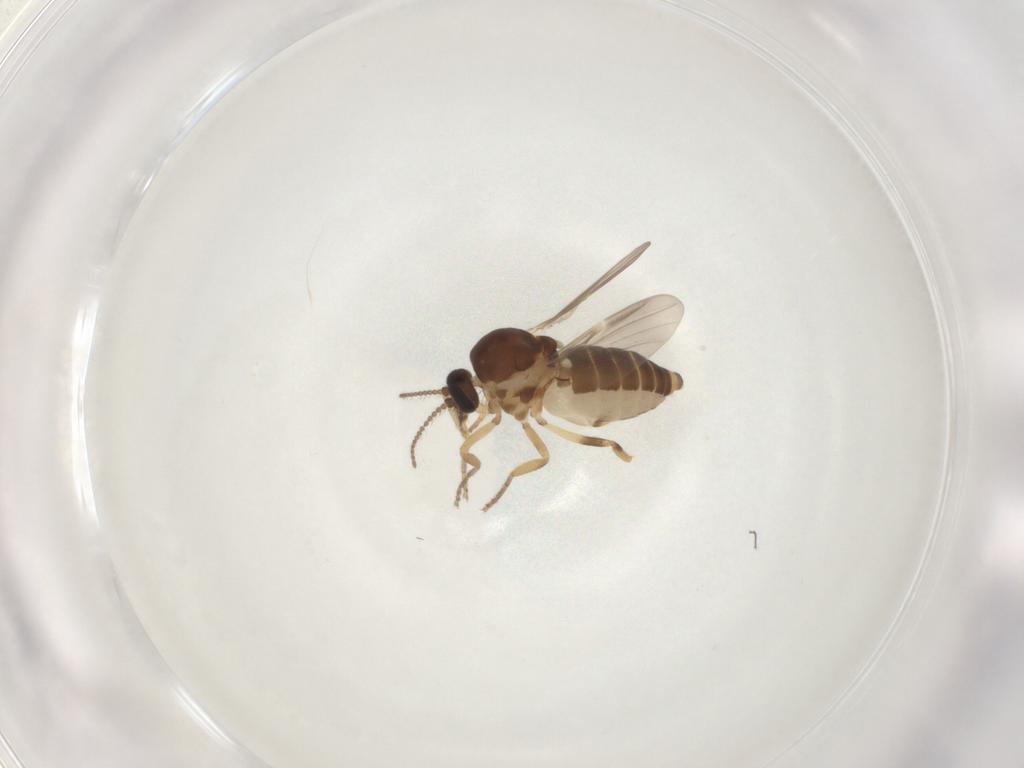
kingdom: Animalia
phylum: Arthropoda
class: Insecta
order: Diptera
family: Ceratopogonidae
